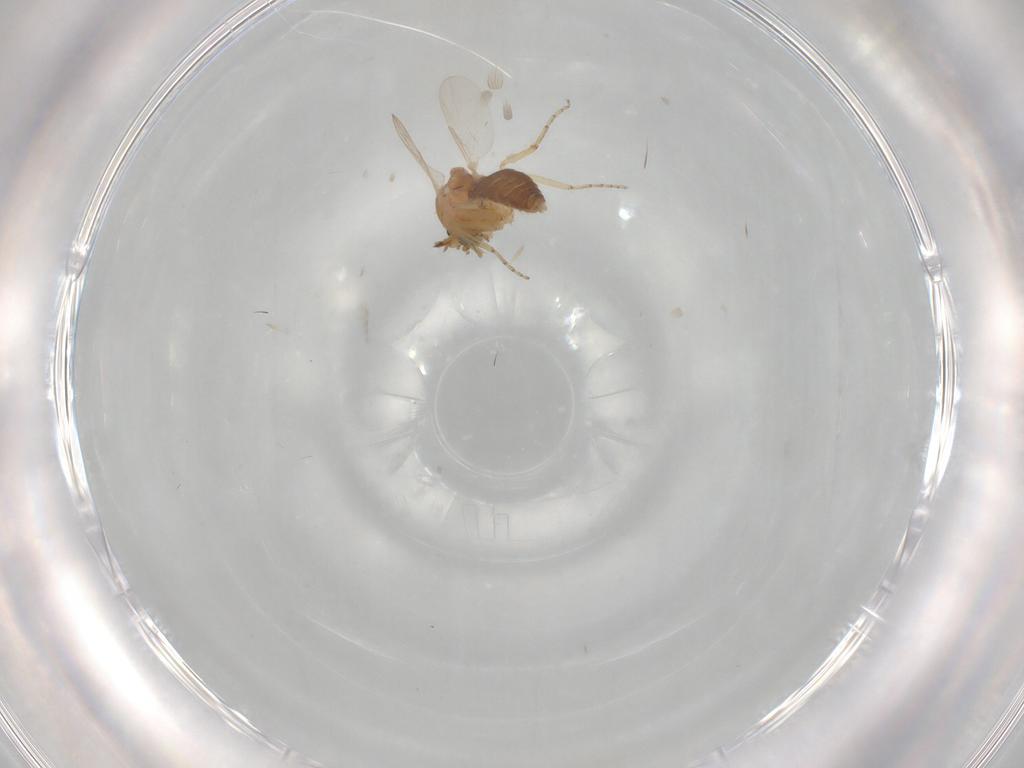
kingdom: Animalia
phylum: Arthropoda
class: Insecta
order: Diptera
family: Ceratopogonidae
